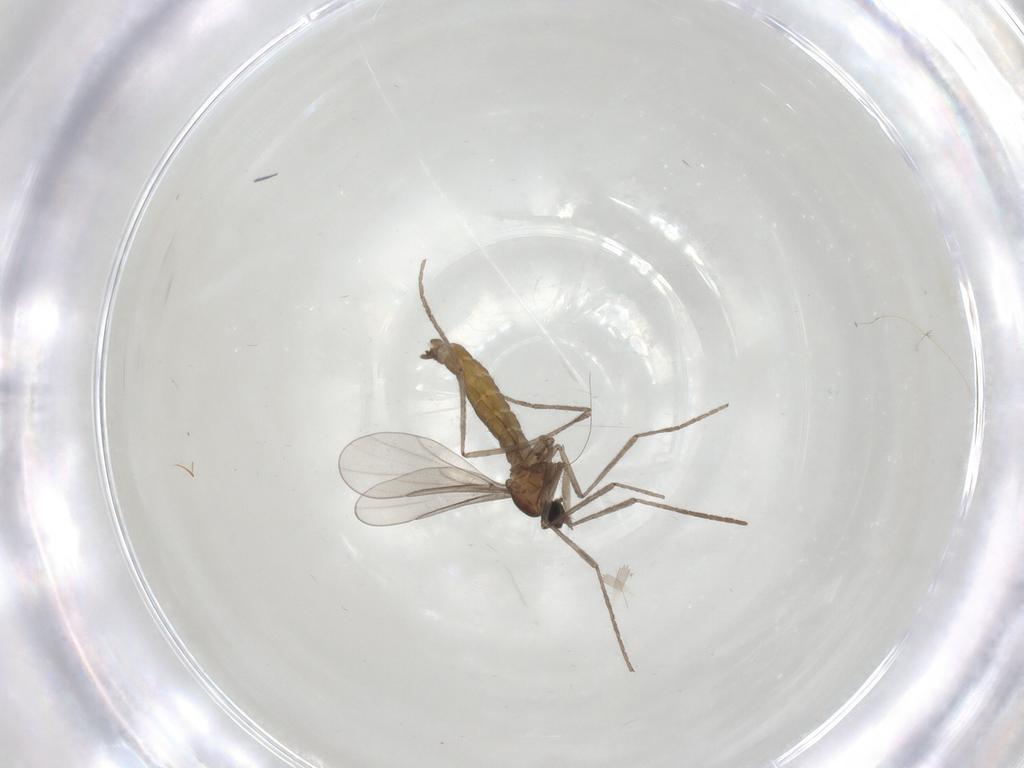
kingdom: Animalia
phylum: Arthropoda
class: Insecta
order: Diptera
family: Cecidomyiidae
